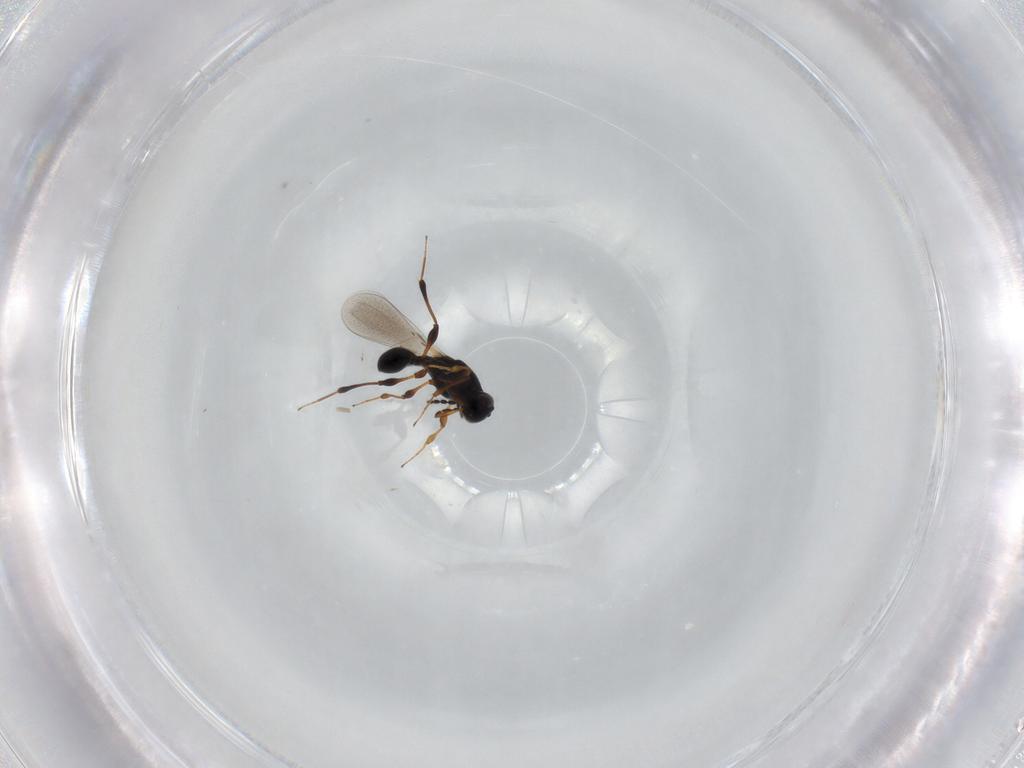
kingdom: Animalia
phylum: Arthropoda
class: Insecta
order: Hymenoptera
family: Platygastridae
